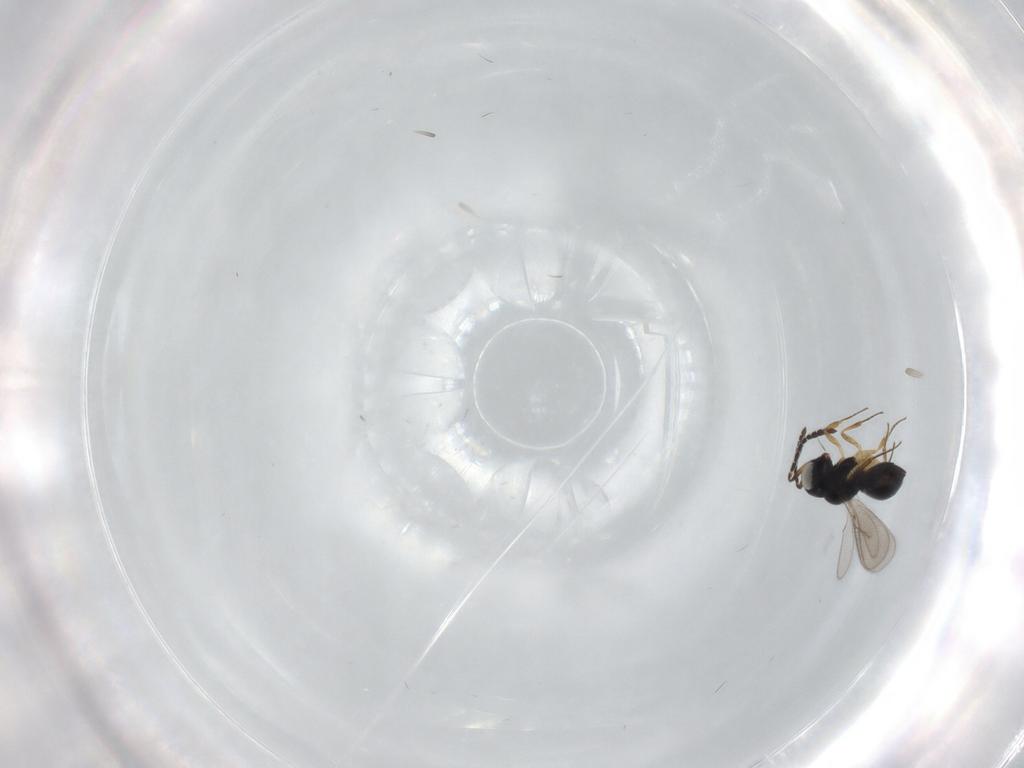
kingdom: Animalia
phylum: Arthropoda
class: Insecta
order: Hymenoptera
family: Scelionidae
